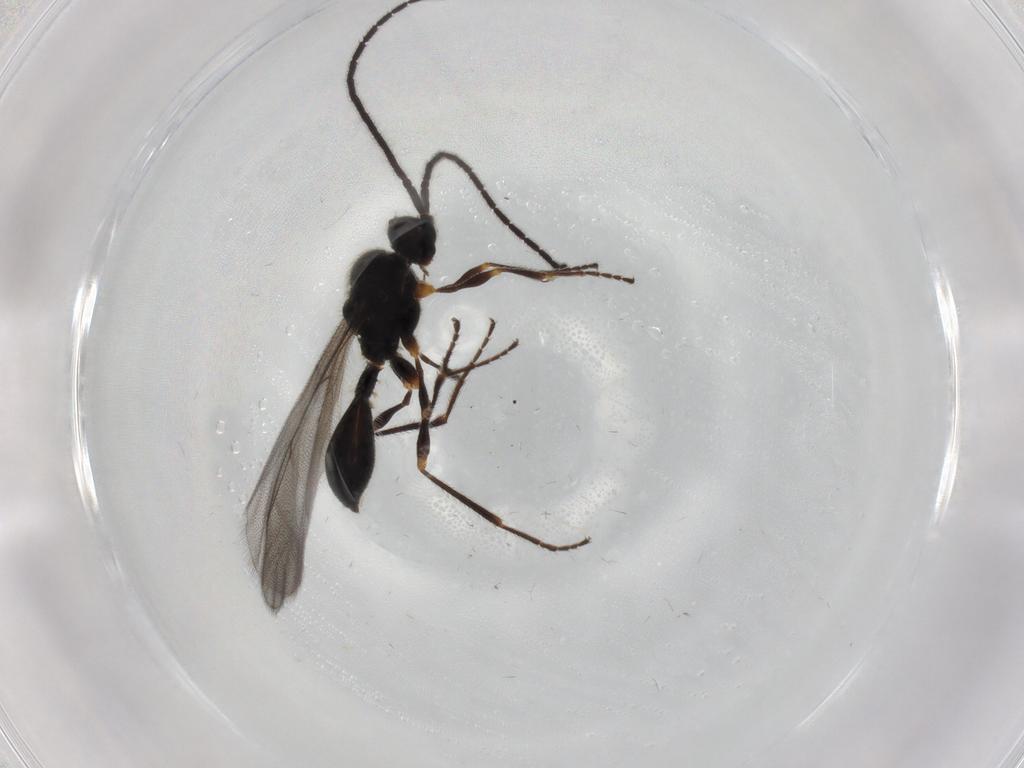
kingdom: Animalia
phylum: Arthropoda
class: Insecta
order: Hymenoptera
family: Diapriidae
